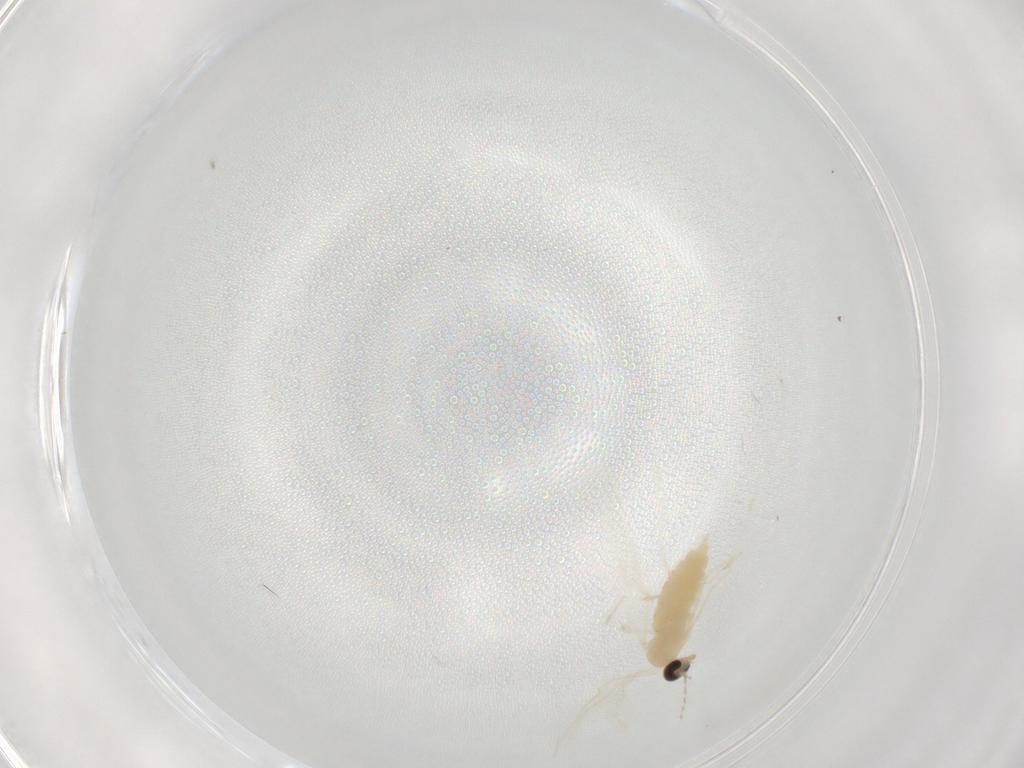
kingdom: Animalia
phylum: Arthropoda
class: Insecta
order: Diptera
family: Cecidomyiidae
